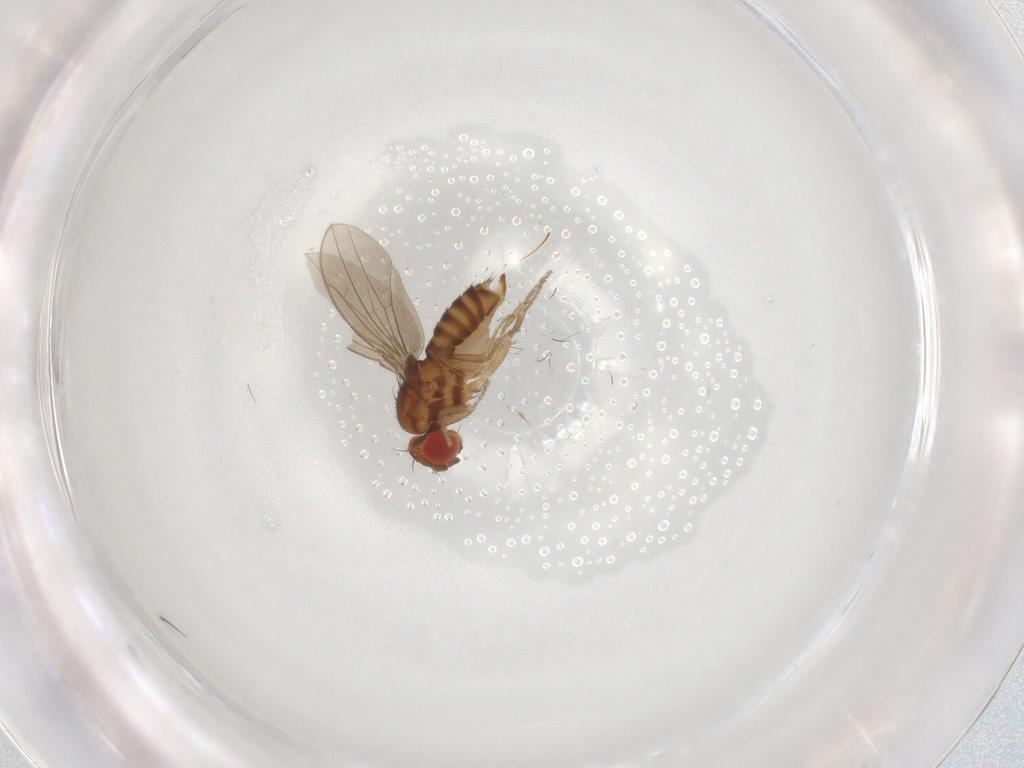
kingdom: Animalia
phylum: Arthropoda
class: Insecta
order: Diptera
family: Drosophilidae
